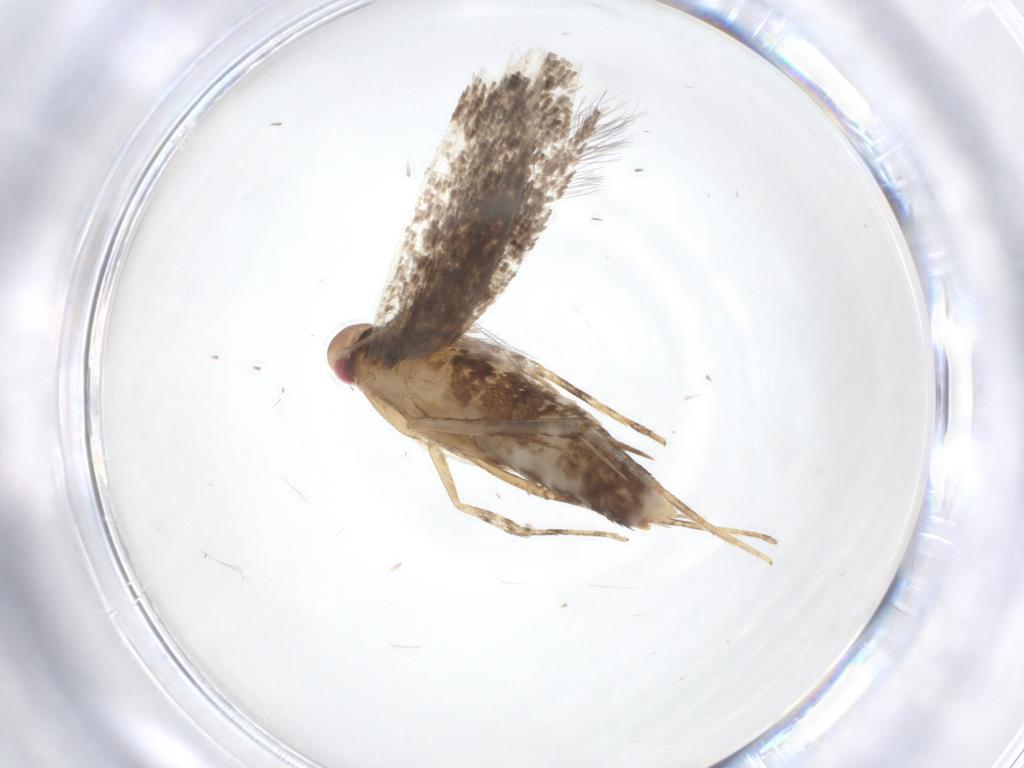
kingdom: Animalia
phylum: Arthropoda
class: Insecta
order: Lepidoptera
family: Cosmopterigidae
